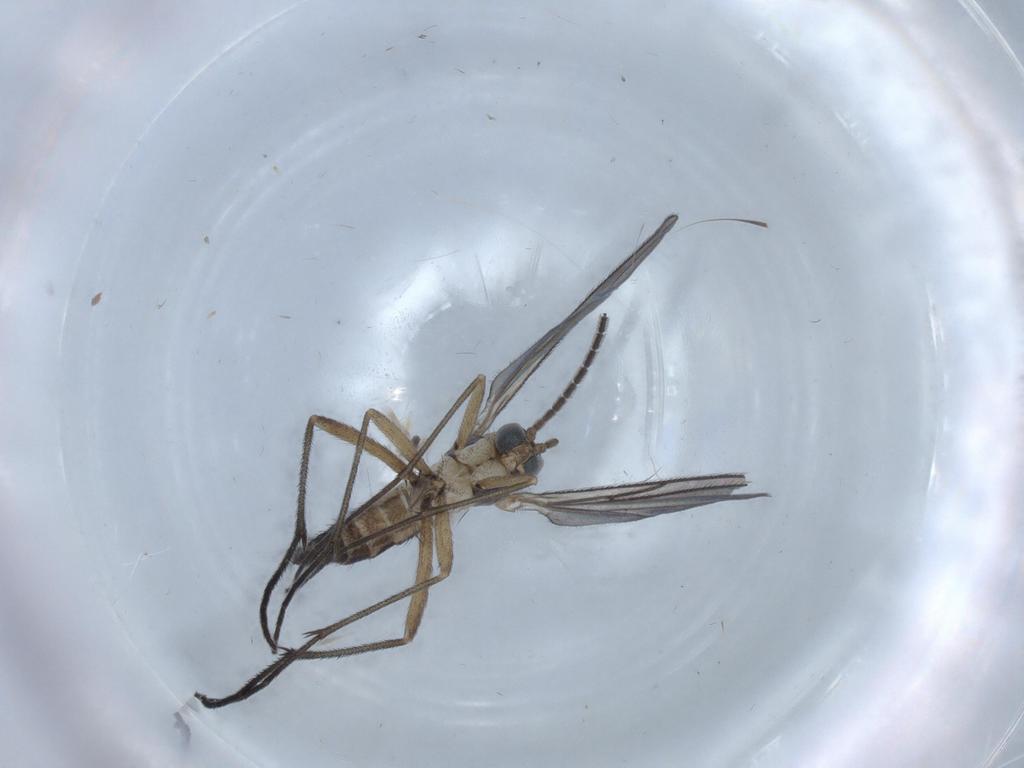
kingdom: Animalia
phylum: Arthropoda
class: Insecta
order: Diptera
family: Chironomidae
